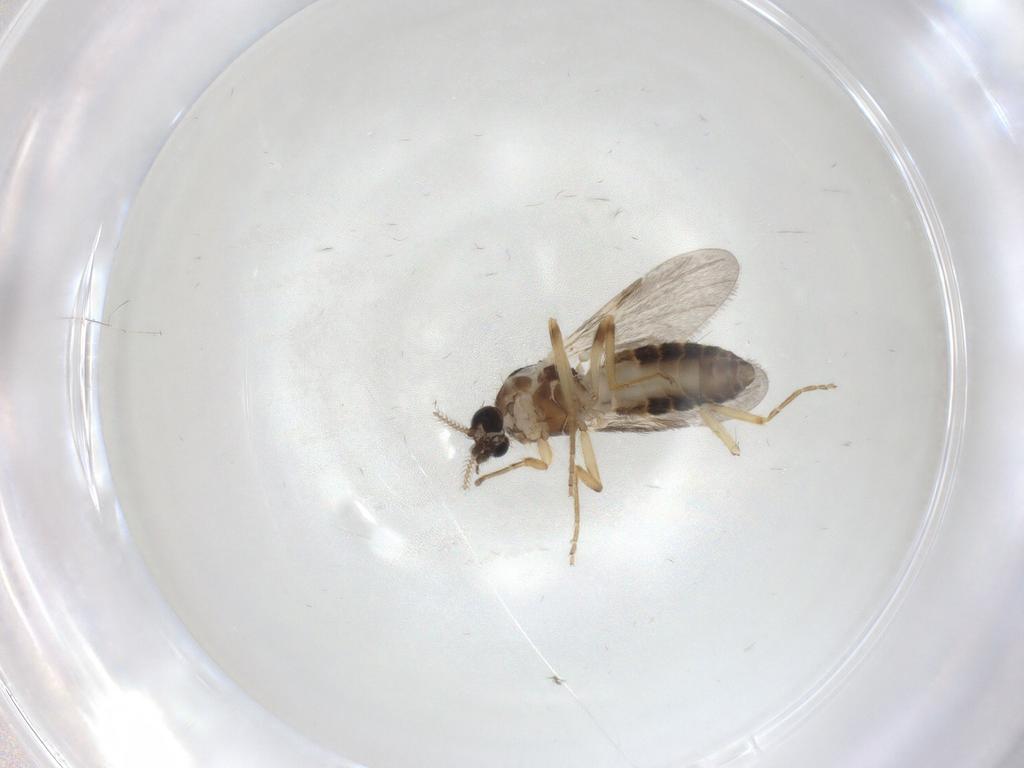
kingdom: Animalia
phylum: Arthropoda
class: Insecta
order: Diptera
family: Ceratopogonidae
